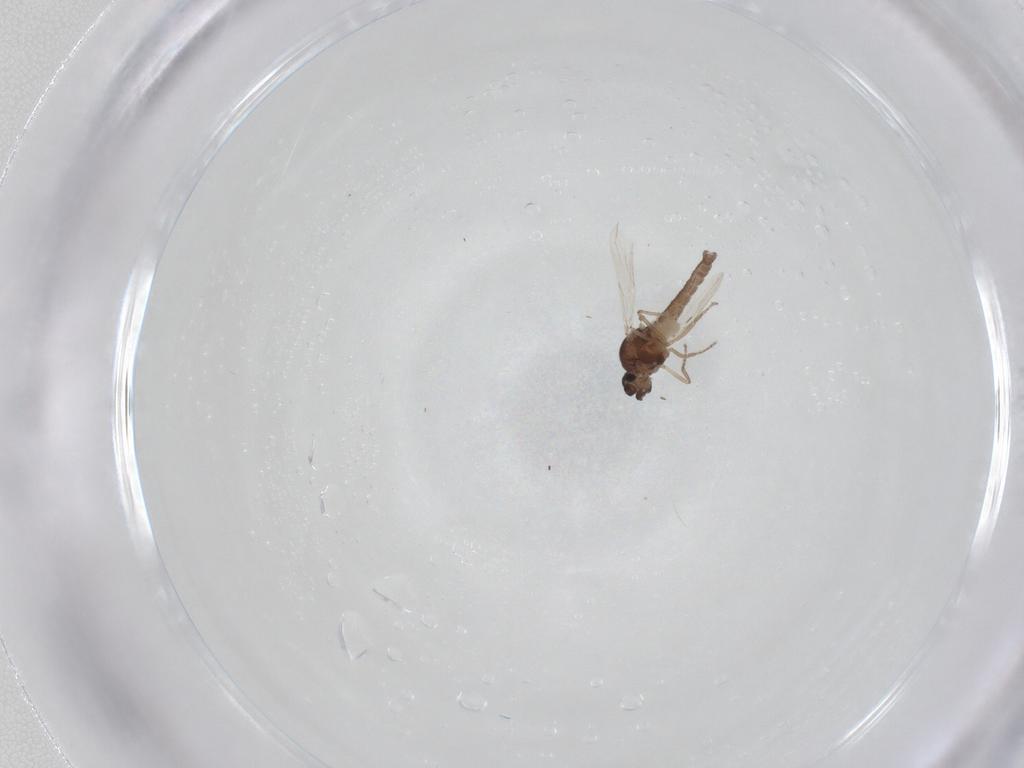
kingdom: Animalia
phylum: Arthropoda
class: Insecta
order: Diptera
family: Ceratopogonidae
